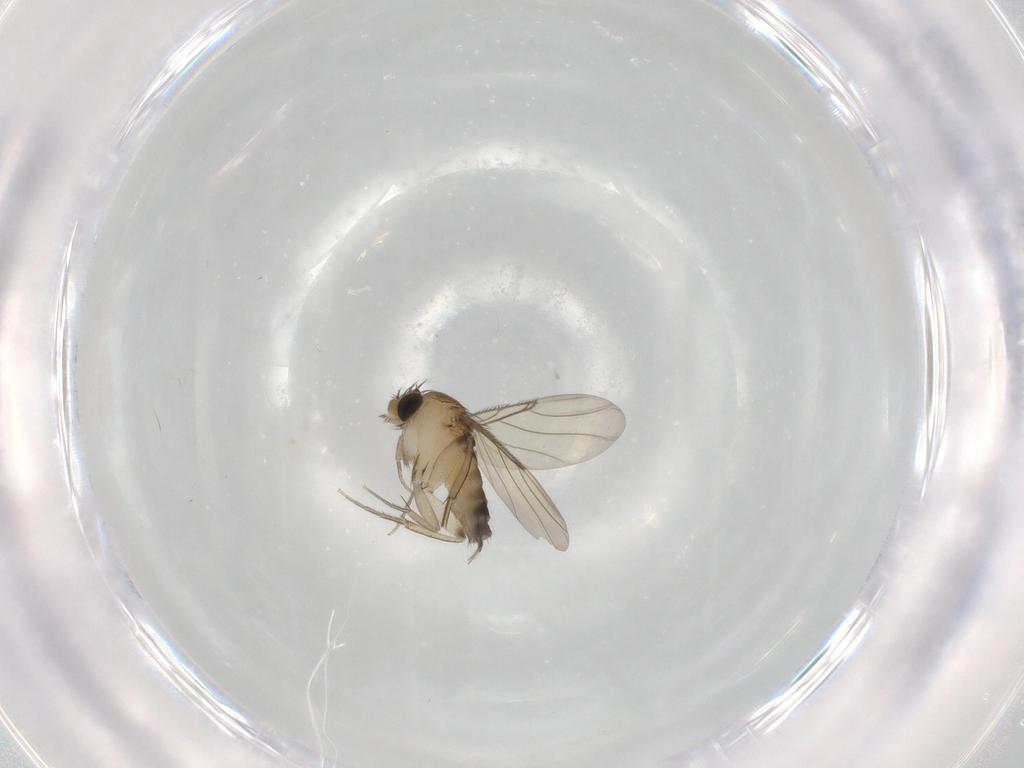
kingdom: Animalia
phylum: Arthropoda
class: Insecta
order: Diptera
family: Phoridae
